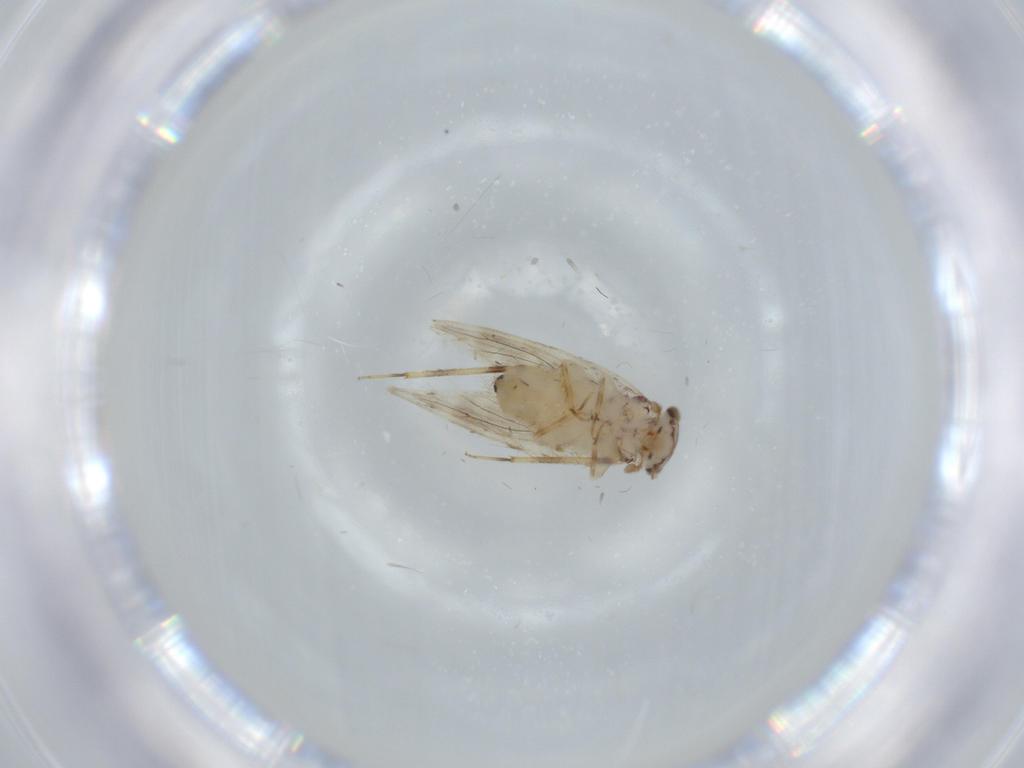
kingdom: Animalia
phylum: Arthropoda
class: Insecta
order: Psocodea
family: Lepidopsocidae
